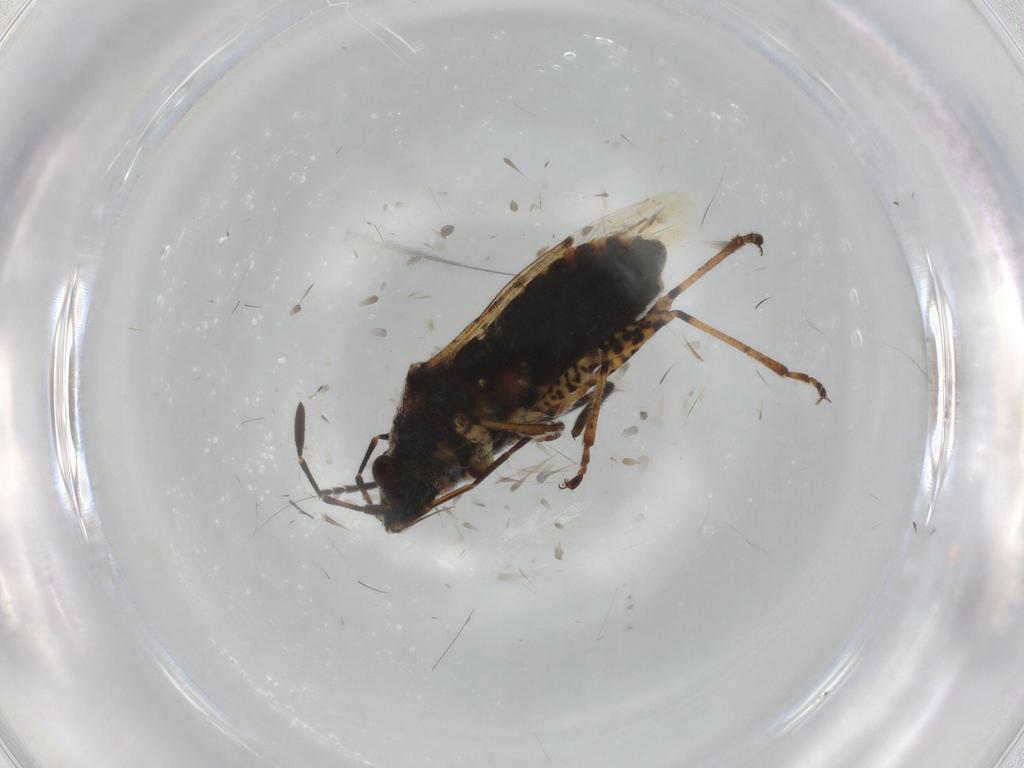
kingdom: Animalia
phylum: Arthropoda
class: Insecta
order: Hemiptera
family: Lygaeidae
